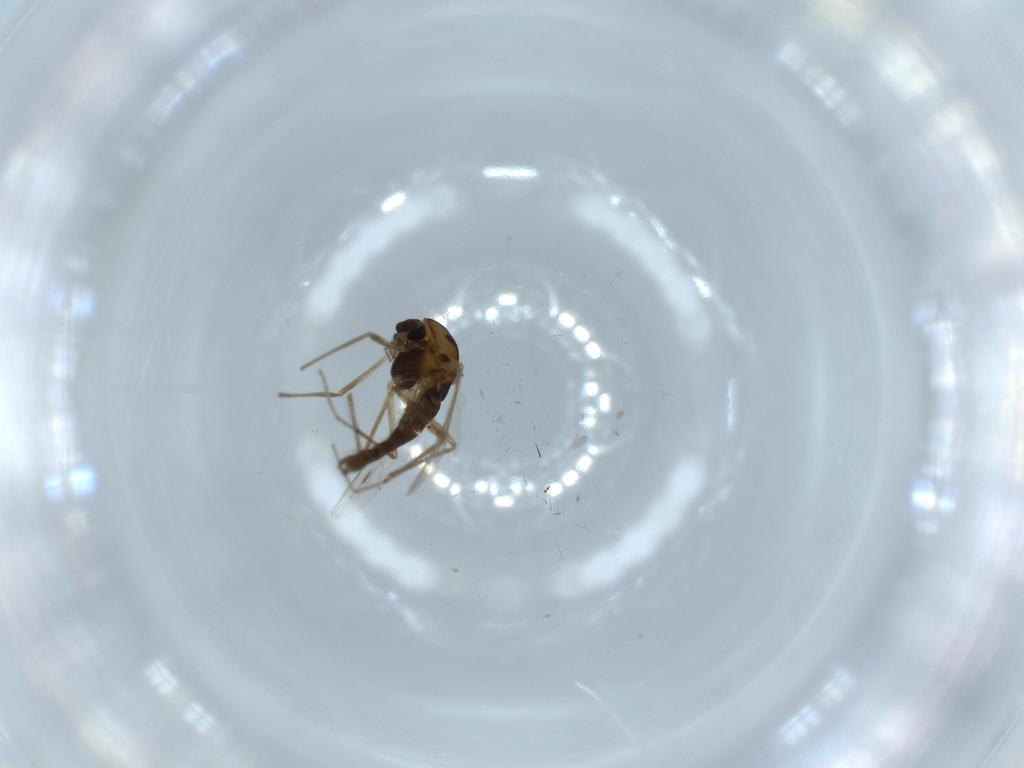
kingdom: Animalia
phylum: Arthropoda
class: Insecta
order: Diptera
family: Chironomidae
